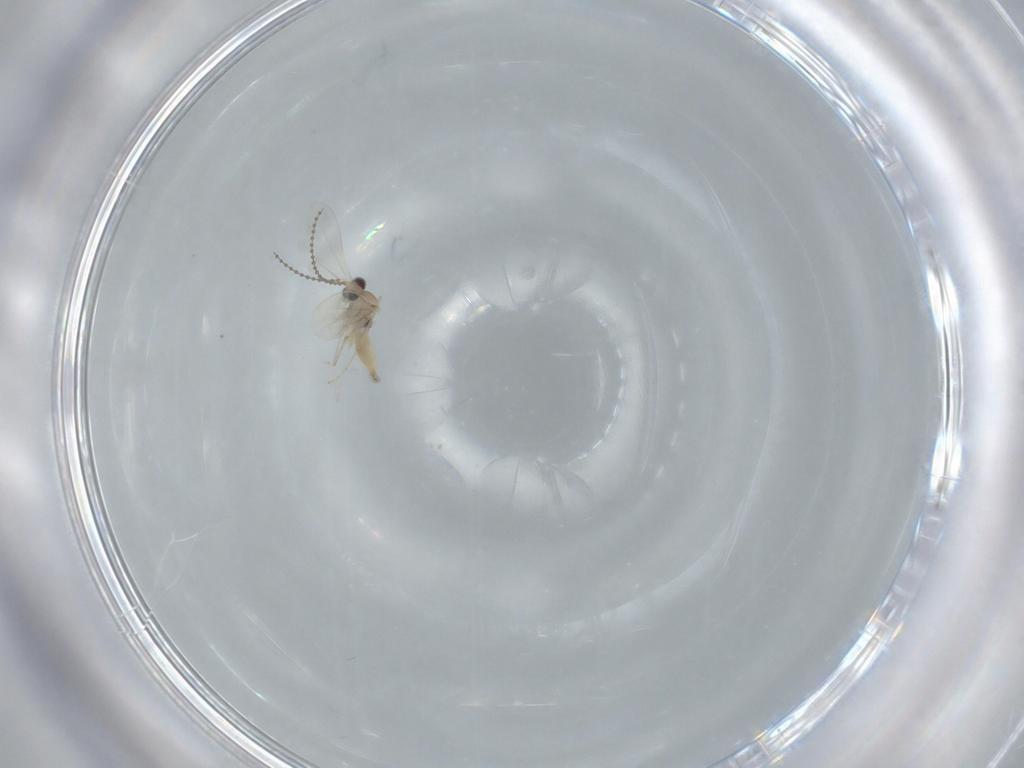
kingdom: Animalia
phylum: Arthropoda
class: Insecta
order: Diptera
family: Cecidomyiidae
